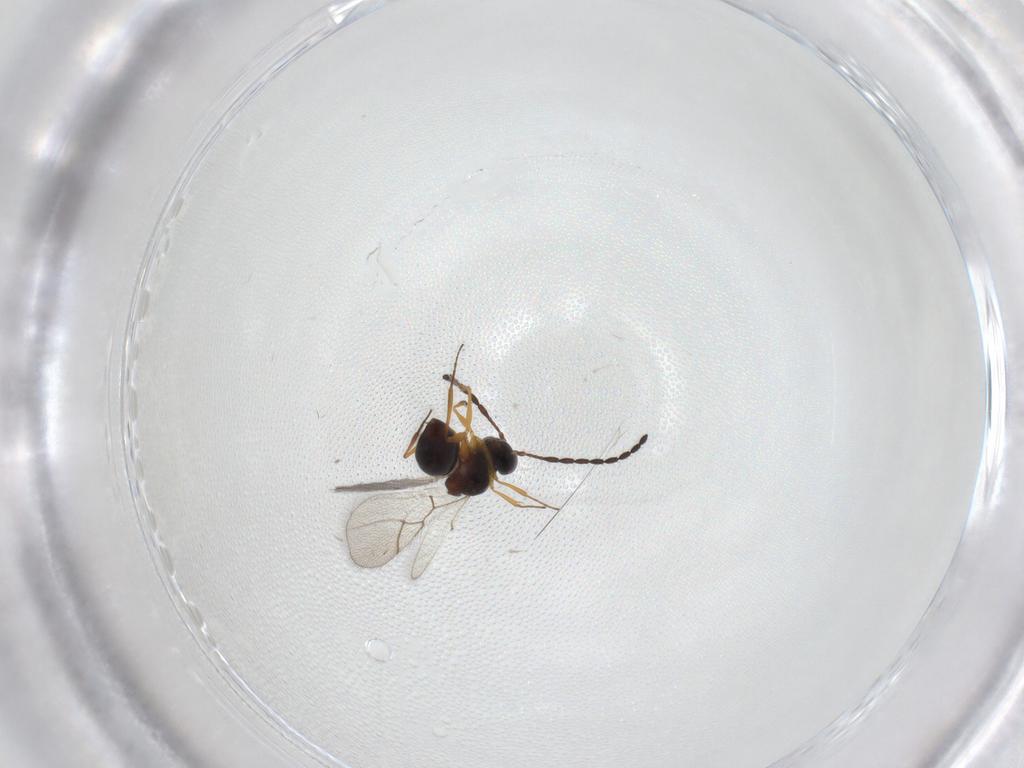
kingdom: Animalia
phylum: Arthropoda
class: Insecta
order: Hymenoptera
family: Figitidae
